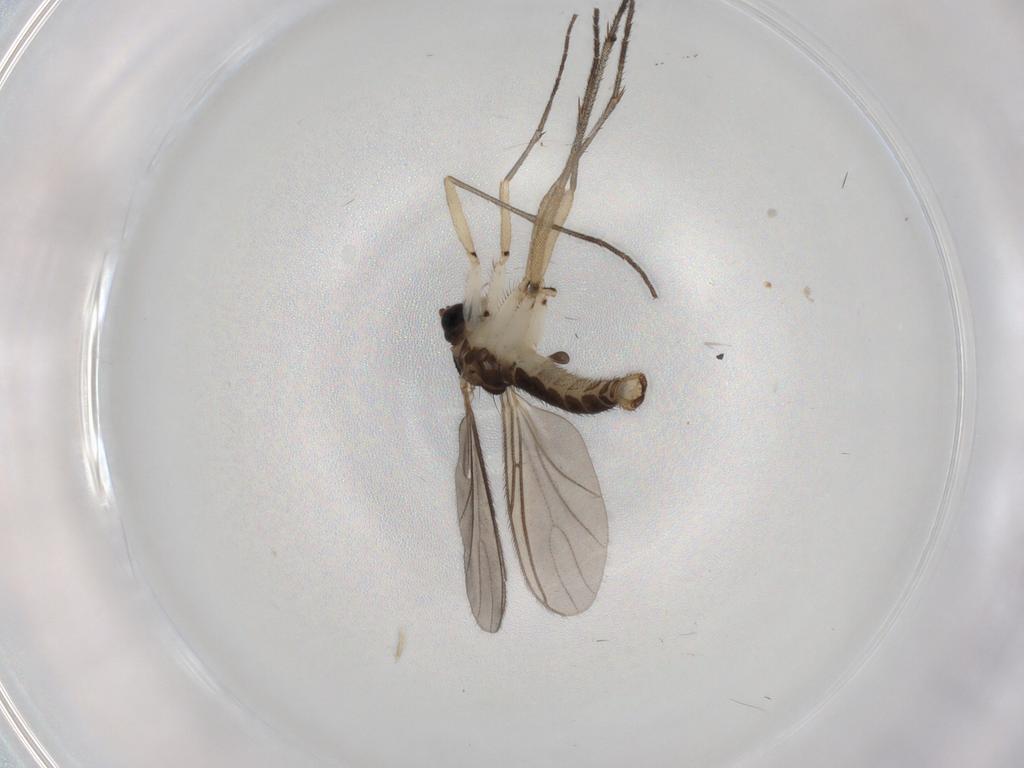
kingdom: Animalia
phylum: Arthropoda
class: Insecta
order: Diptera
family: Sciaridae
